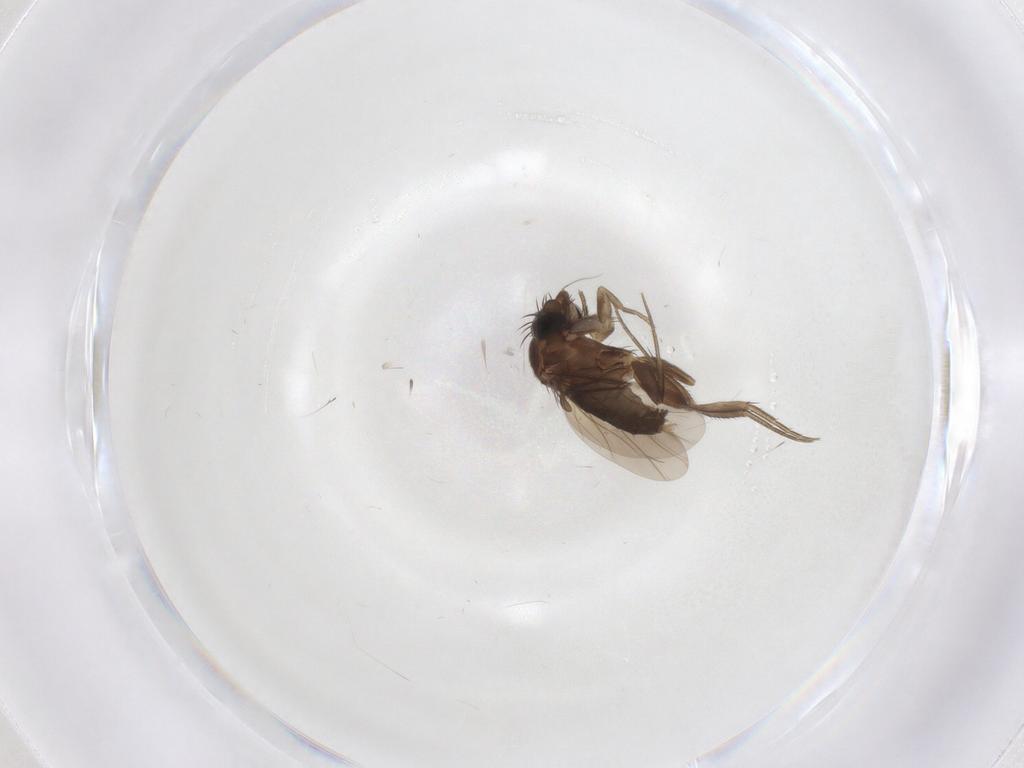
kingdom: Animalia
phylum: Arthropoda
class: Insecta
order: Diptera
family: Phoridae
